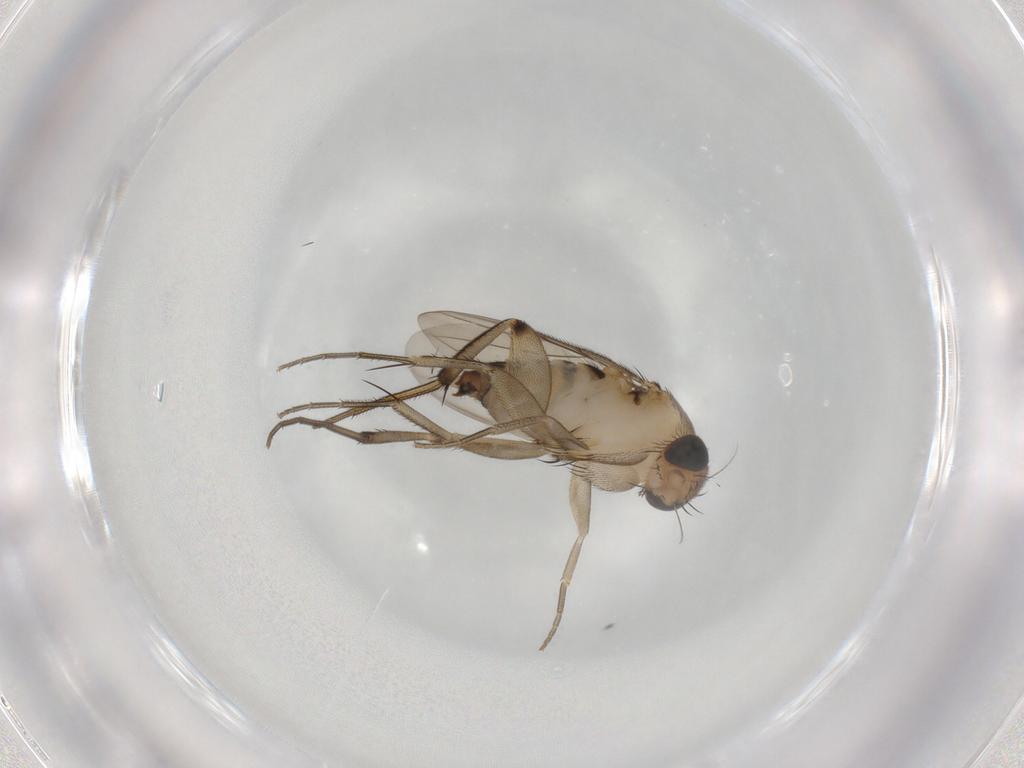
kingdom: Animalia
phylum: Arthropoda
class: Insecta
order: Diptera
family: Phoridae
